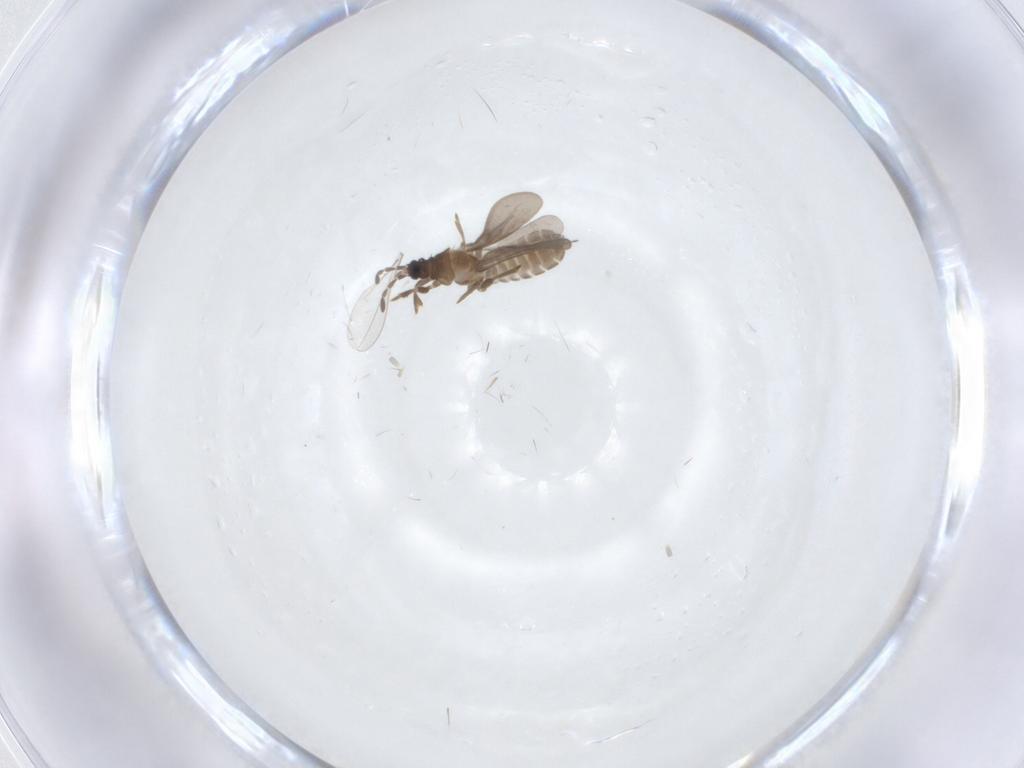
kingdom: Animalia
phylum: Arthropoda
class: Insecta
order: Hemiptera
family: Enicocephalidae
